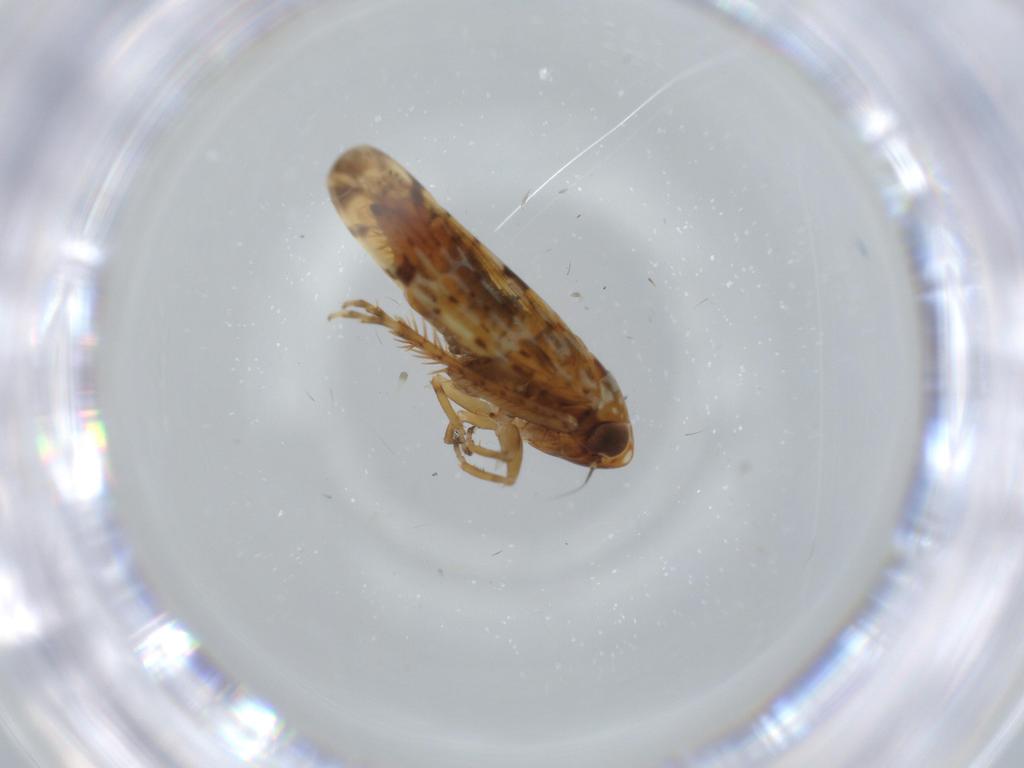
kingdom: Animalia
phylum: Arthropoda
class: Insecta
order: Hemiptera
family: Cicadellidae
